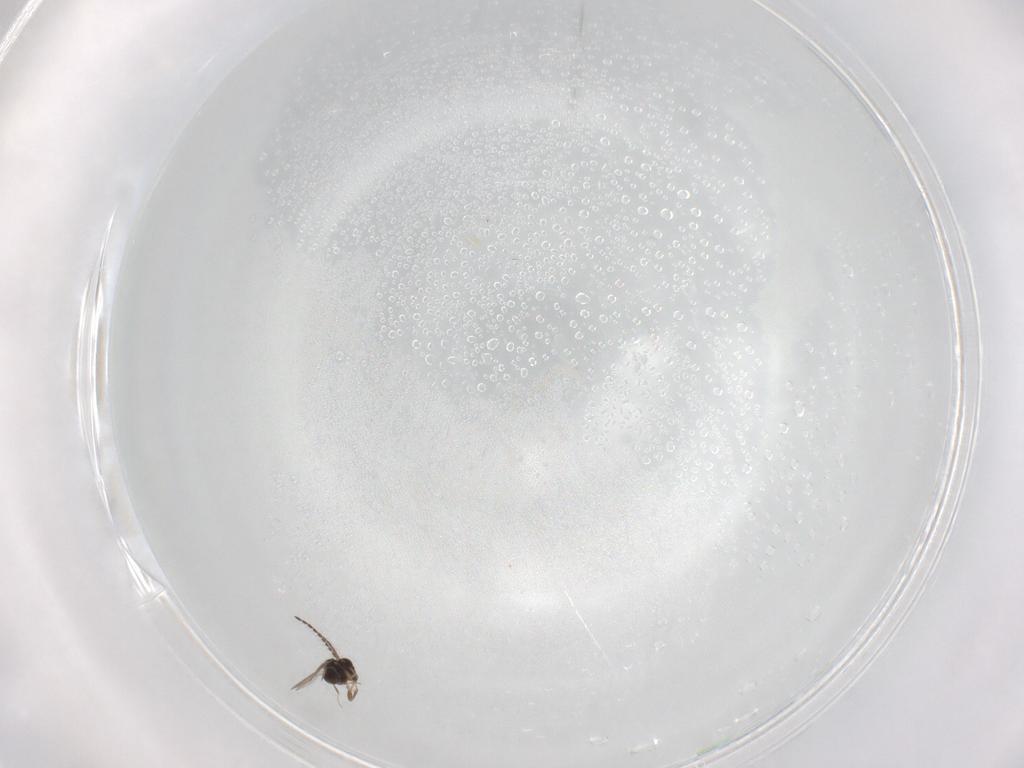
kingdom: Animalia
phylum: Arthropoda
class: Insecta
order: Hymenoptera
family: Ceraphronidae
